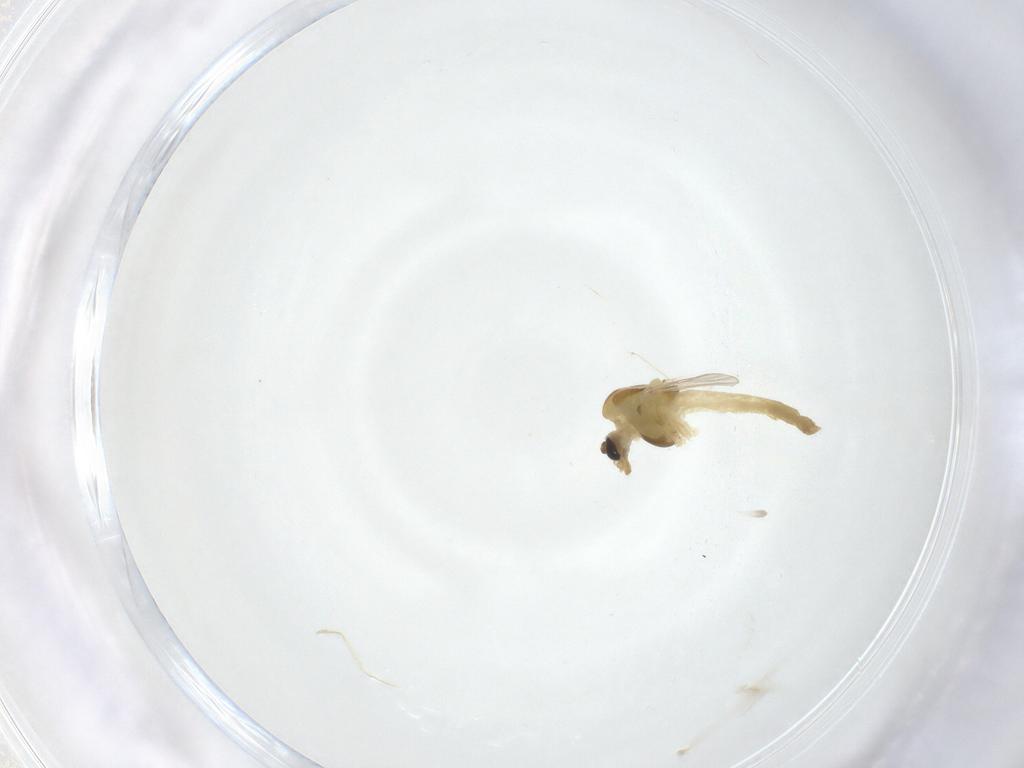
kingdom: Animalia
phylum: Arthropoda
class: Insecta
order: Diptera
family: Chironomidae
